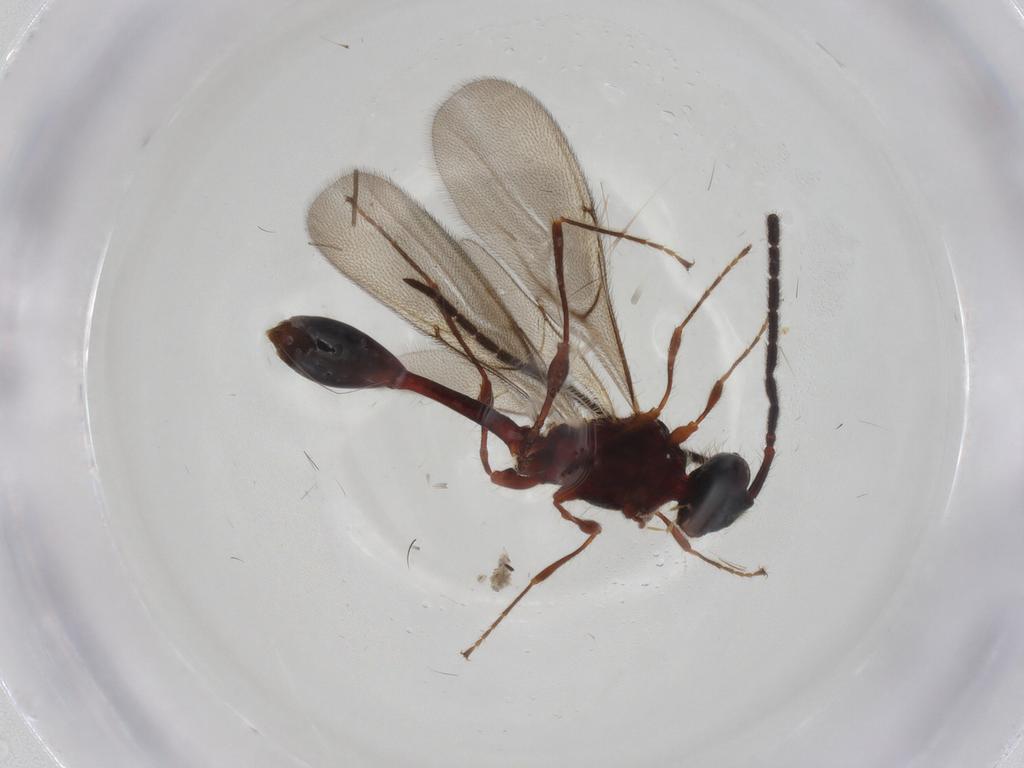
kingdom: Animalia
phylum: Arthropoda
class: Insecta
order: Hymenoptera
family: Diapriidae
